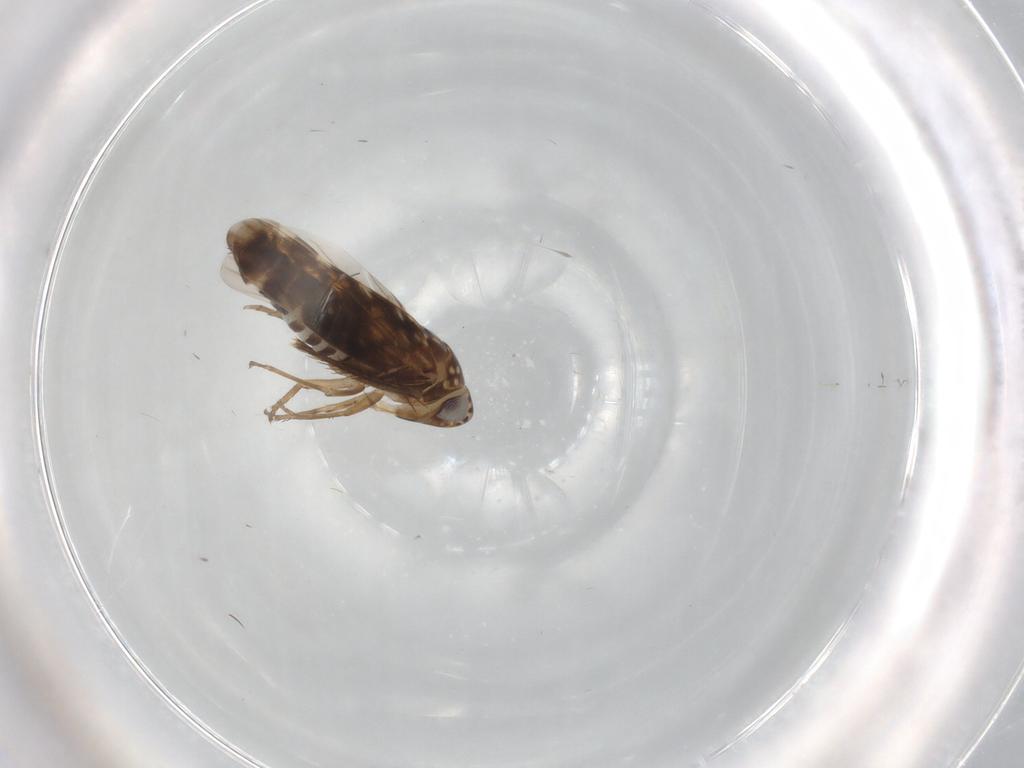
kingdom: Animalia
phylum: Arthropoda
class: Insecta
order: Hemiptera
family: Cicadellidae
